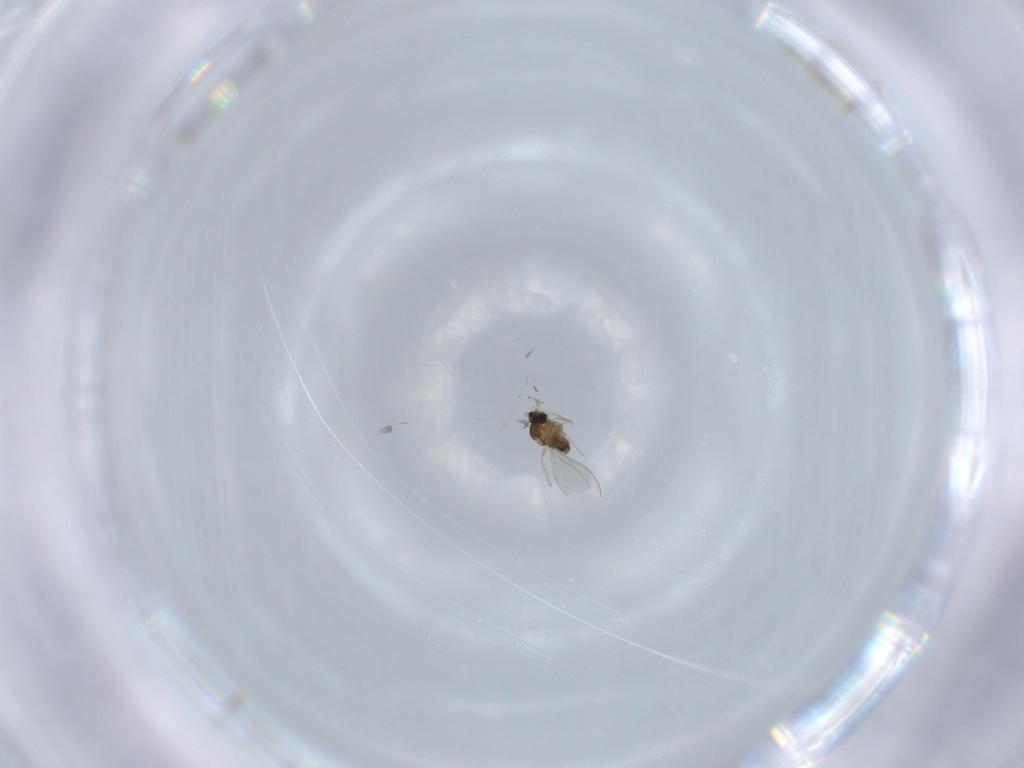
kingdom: Animalia
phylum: Arthropoda
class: Insecta
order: Diptera
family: Cecidomyiidae
